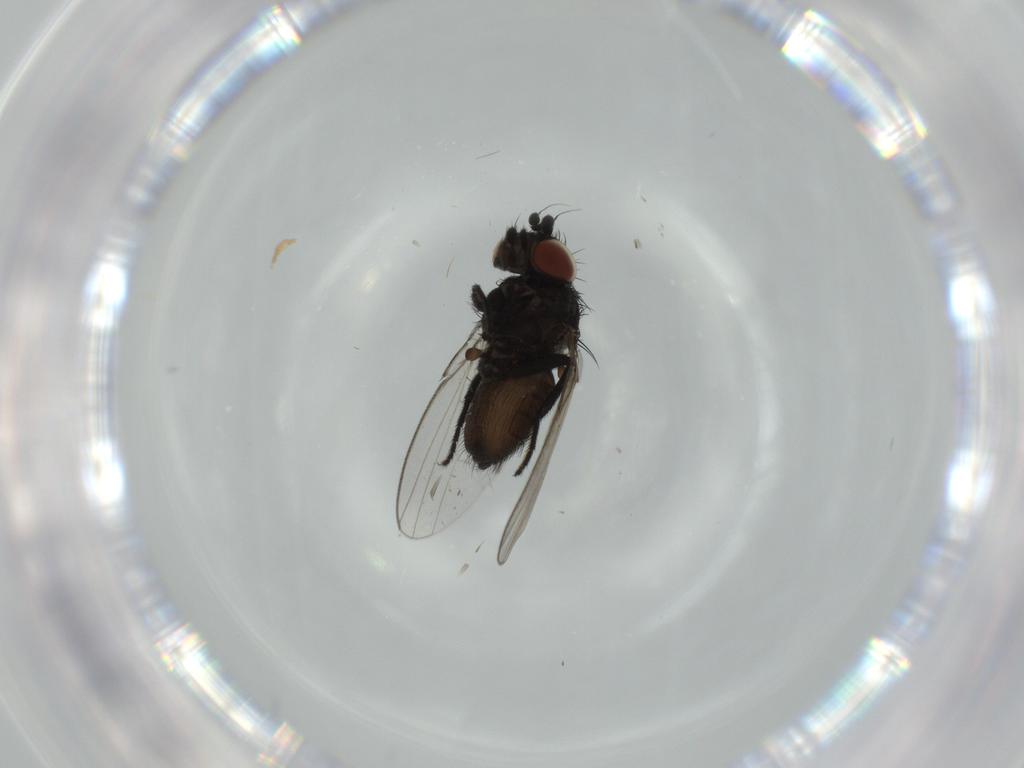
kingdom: Animalia
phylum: Arthropoda
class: Insecta
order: Diptera
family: Milichiidae
